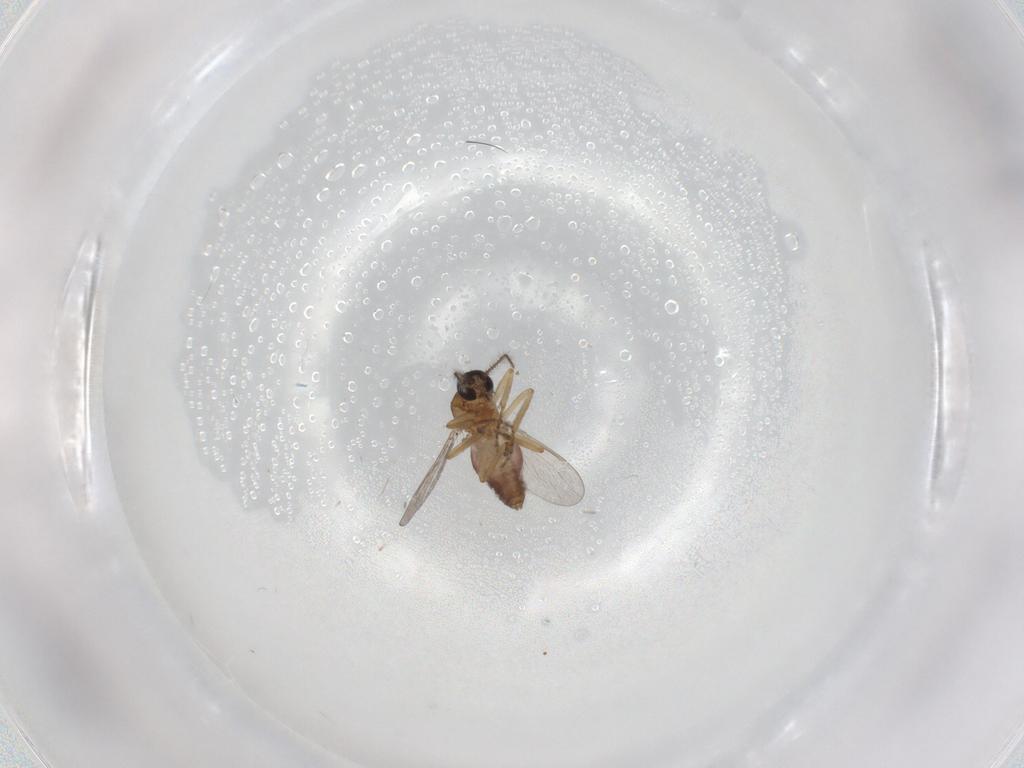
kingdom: Animalia
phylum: Arthropoda
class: Insecta
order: Diptera
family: Ceratopogonidae
